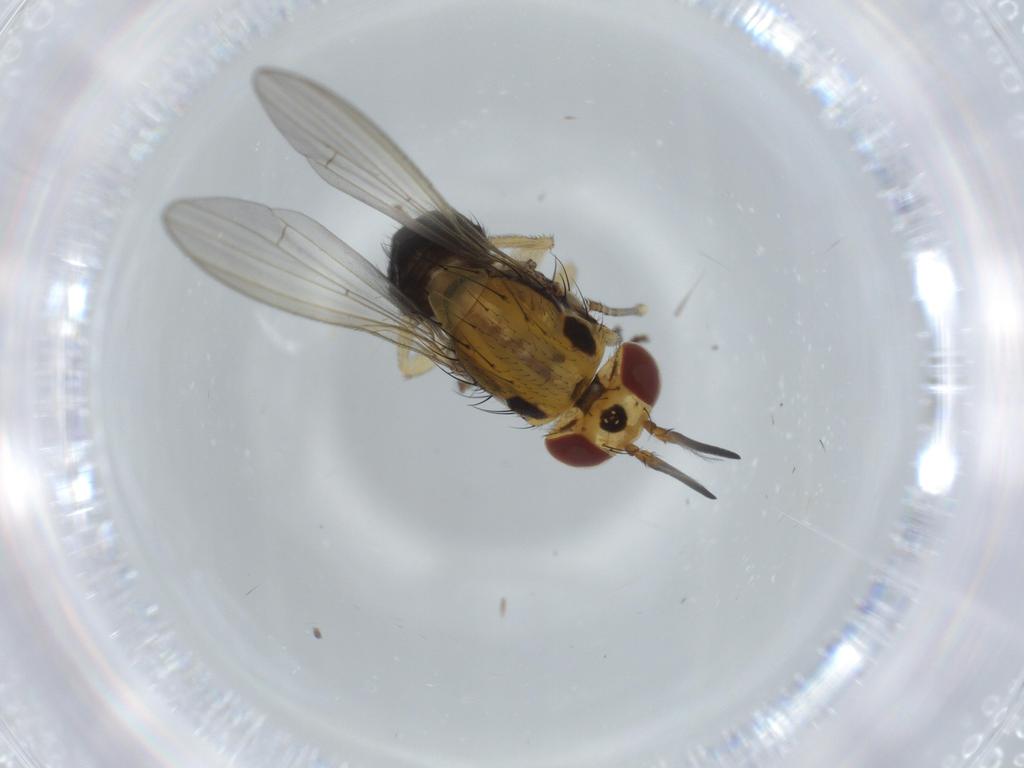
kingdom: Animalia
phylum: Arthropoda
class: Insecta
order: Diptera
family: Lauxaniidae
